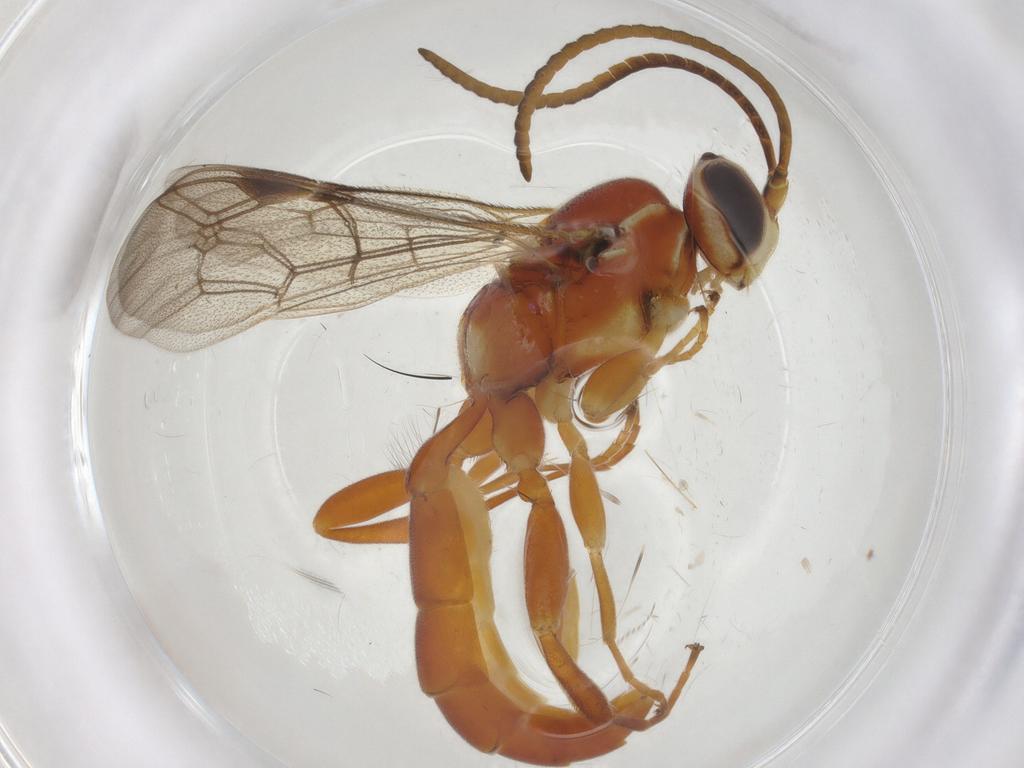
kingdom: Animalia
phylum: Arthropoda
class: Insecta
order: Hymenoptera
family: Ichneumonidae
